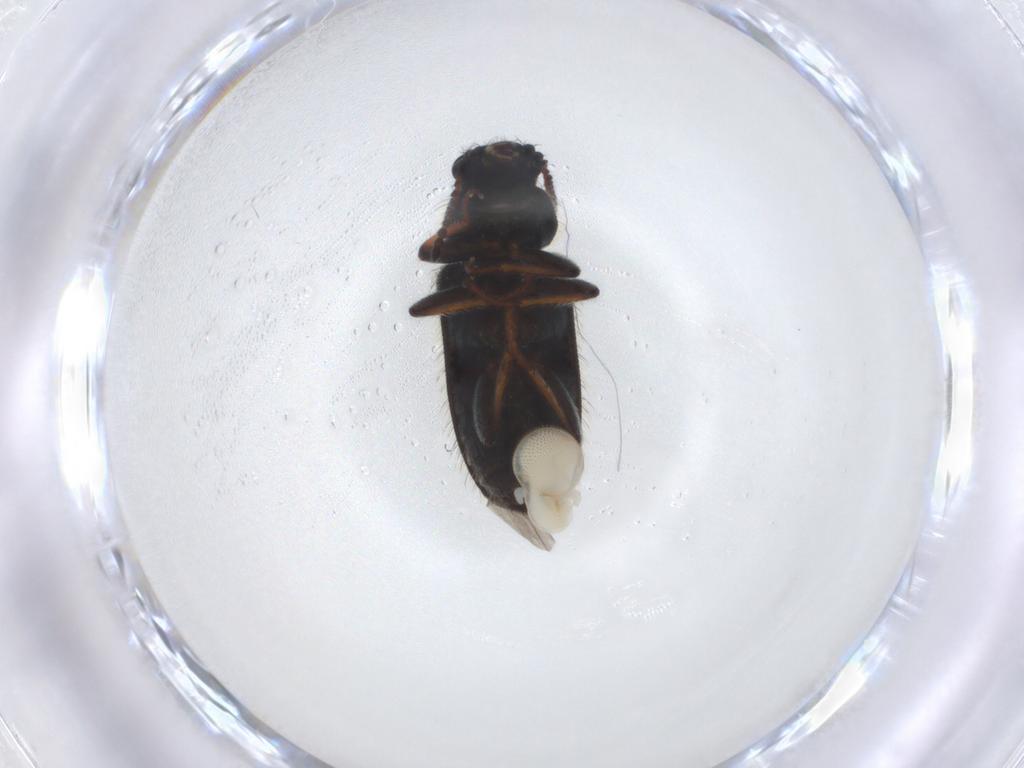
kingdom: Animalia
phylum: Arthropoda
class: Insecta
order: Coleoptera
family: Melyridae
